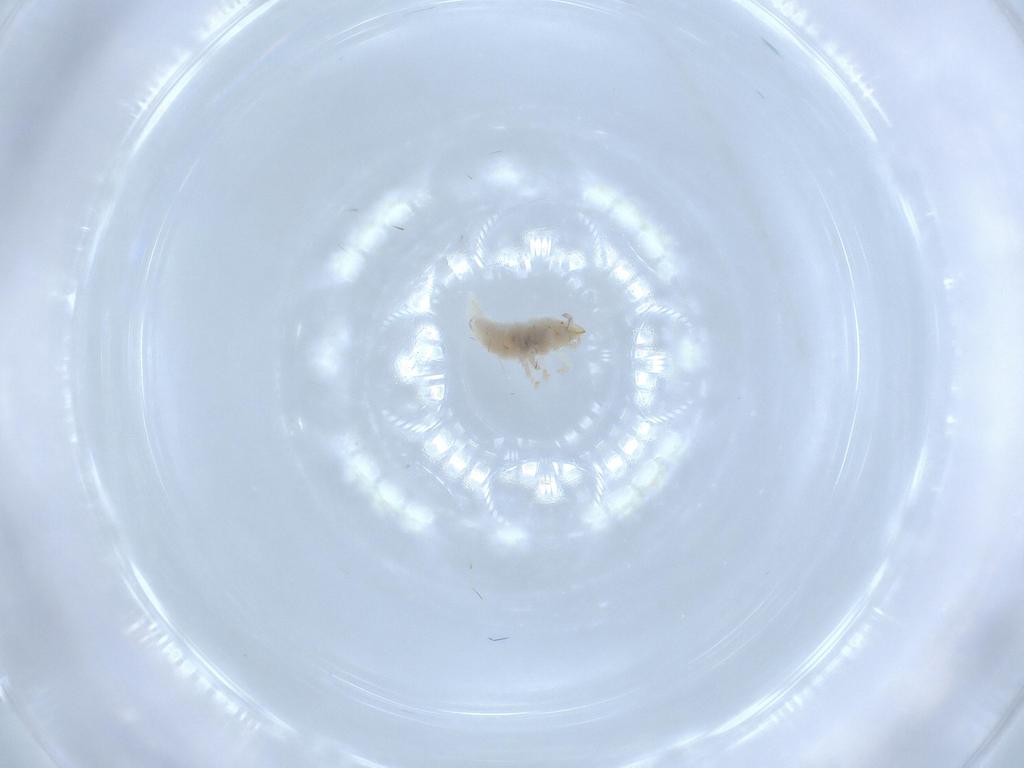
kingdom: Animalia
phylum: Arthropoda
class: Insecta
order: Neuroptera
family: Coniopterygidae
